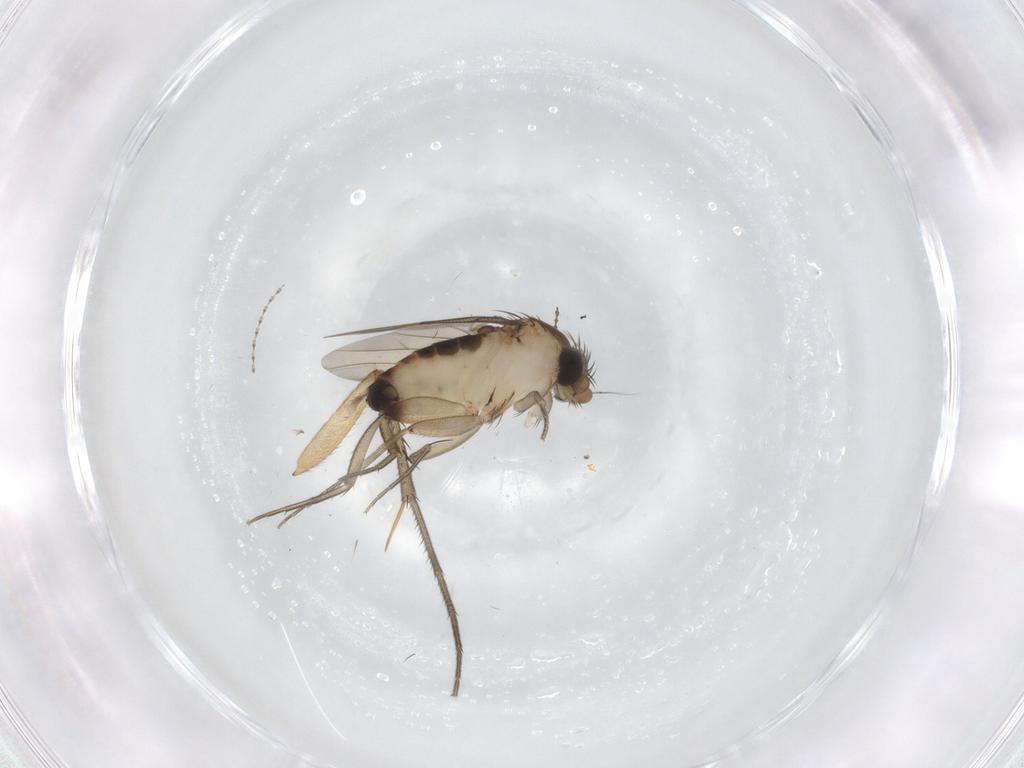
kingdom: Animalia
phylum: Arthropoda
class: Insecta
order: Diptera
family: Phoridae
